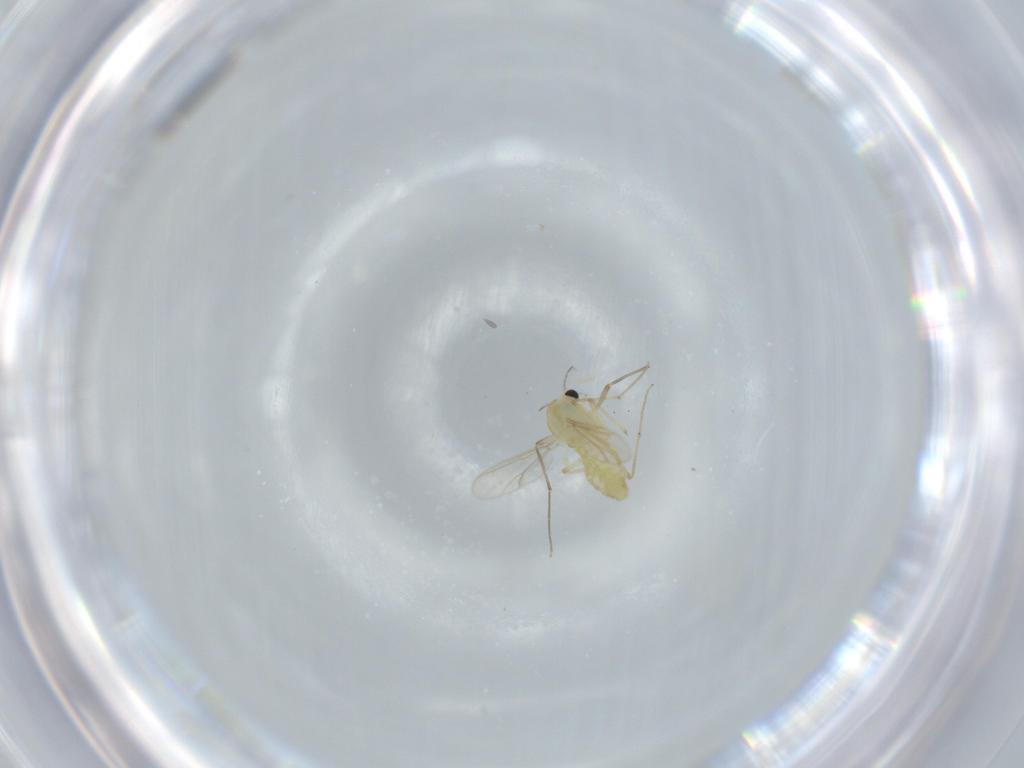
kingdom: Animalia
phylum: Arthropoda
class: Insecta
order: Diptera
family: Chironomidae
